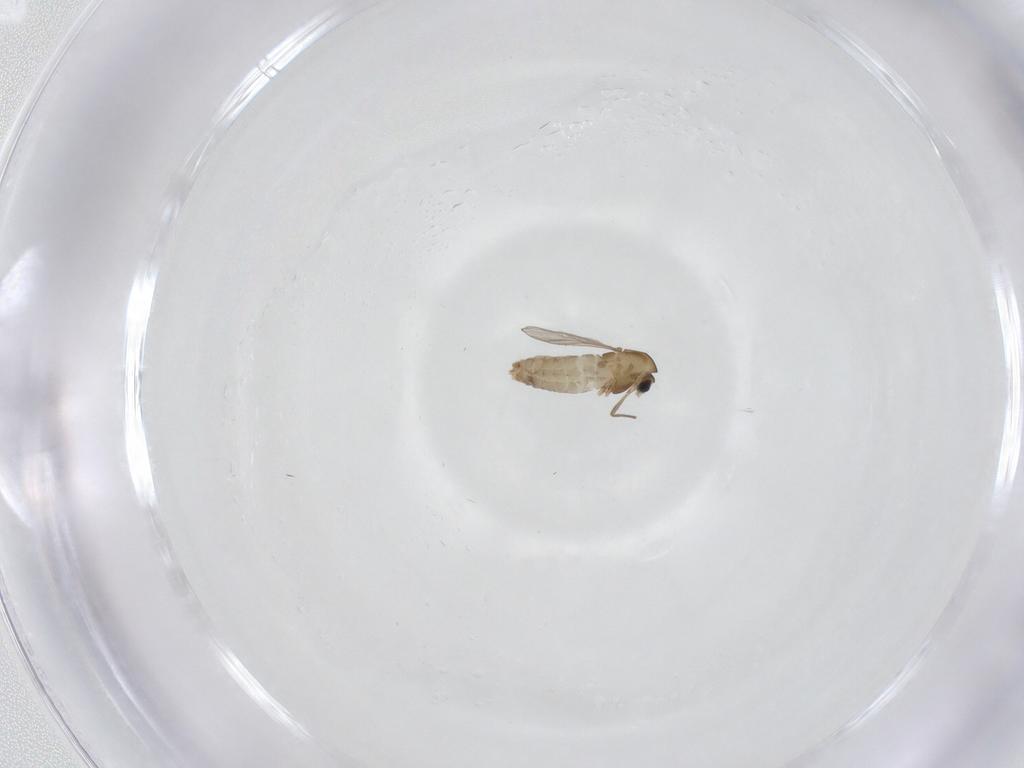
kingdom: Animalia
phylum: Arthropoda
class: Insecta
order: Diptera
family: Chironomidae
